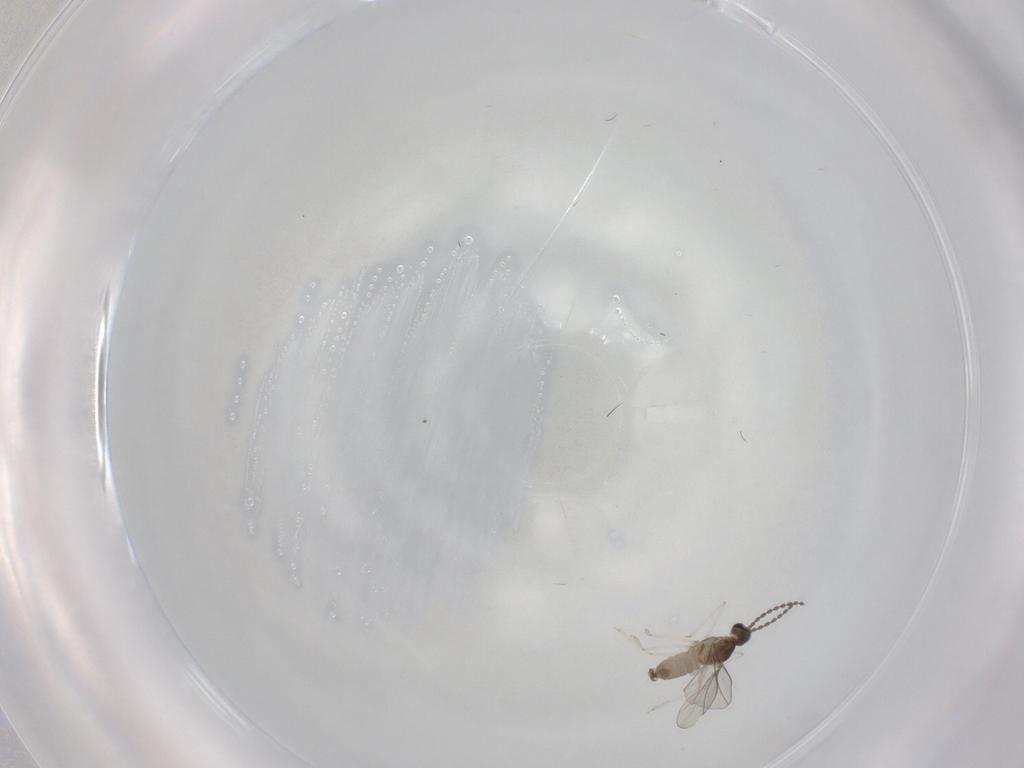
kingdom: Animalia
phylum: Arthropoda
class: Insecta
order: Diptera
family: Cecidomyiidae
